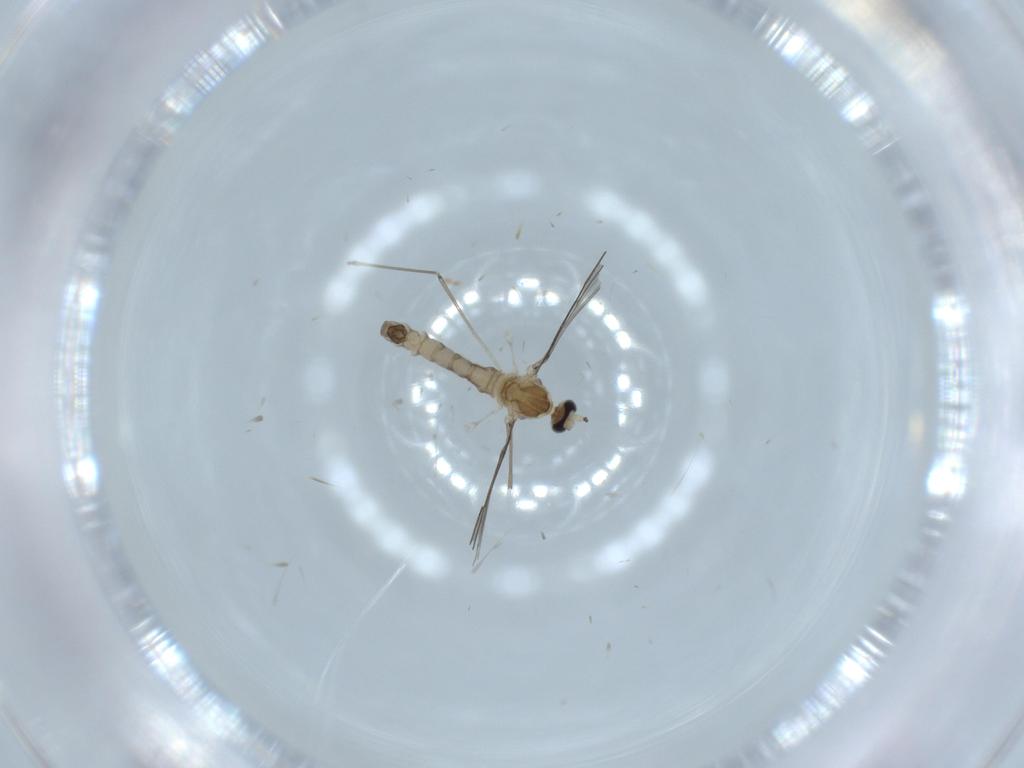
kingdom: Animalia
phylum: Arthropoda
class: Insecta
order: Diptera
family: Cecidomyiidae
